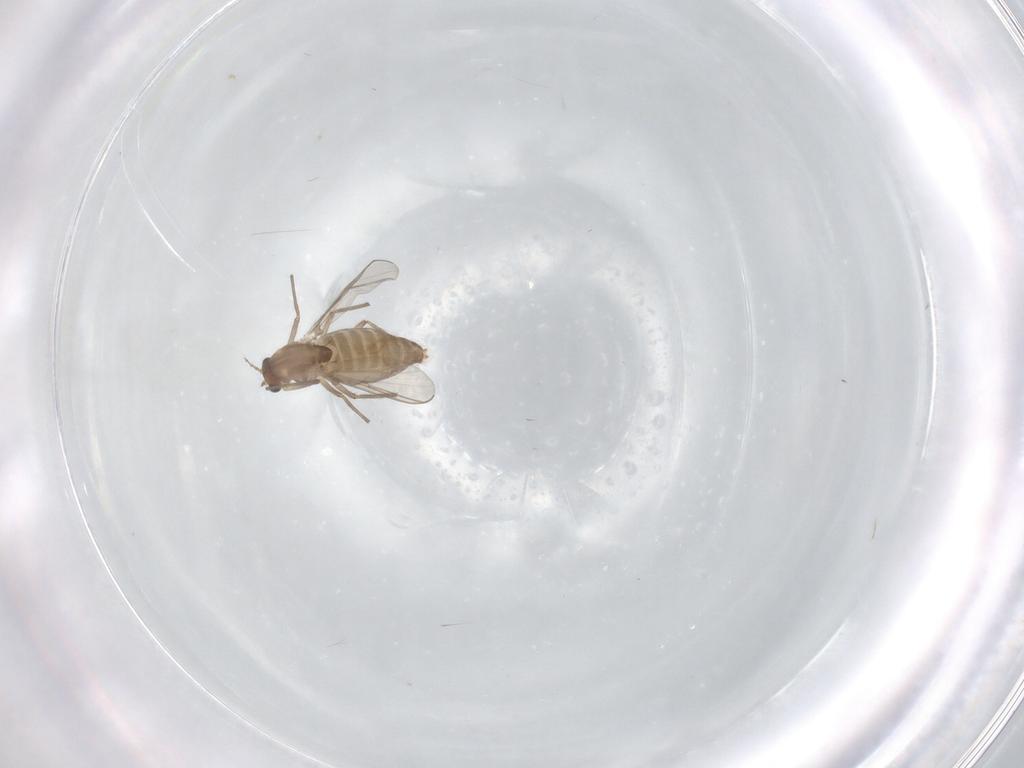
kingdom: Animalia
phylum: Arthropoda
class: Insecta
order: Diptera
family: Chironomidae
